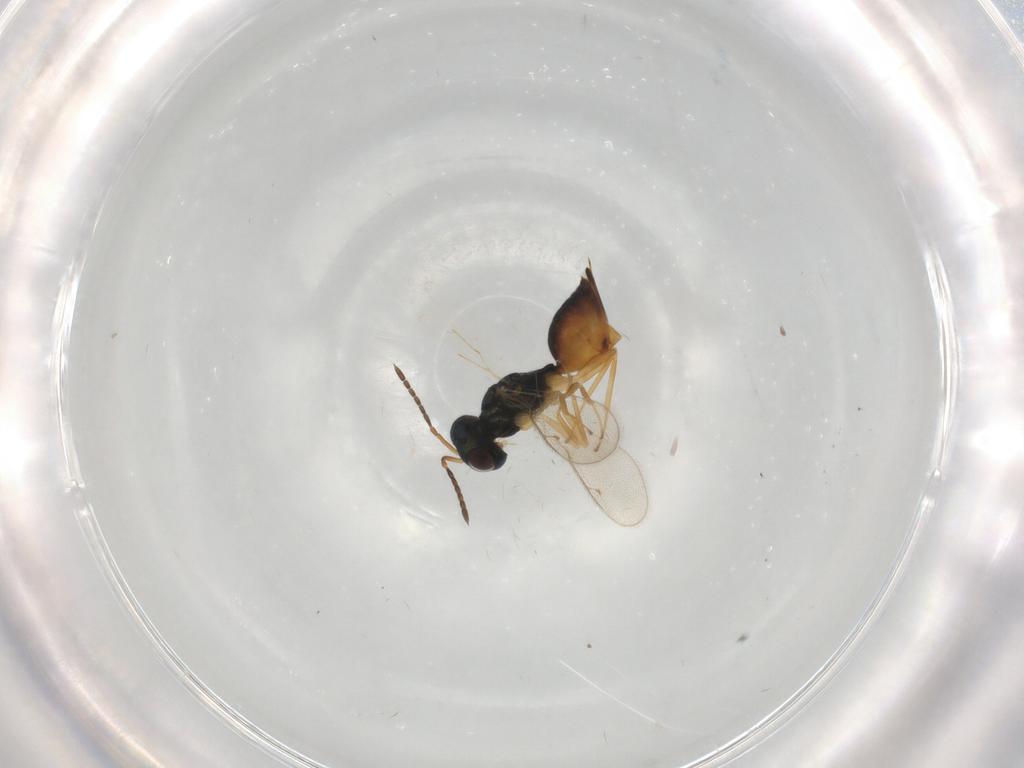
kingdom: Animalia
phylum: Arthropoda
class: Insecta
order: Hymenoptera
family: Pteromalidae
